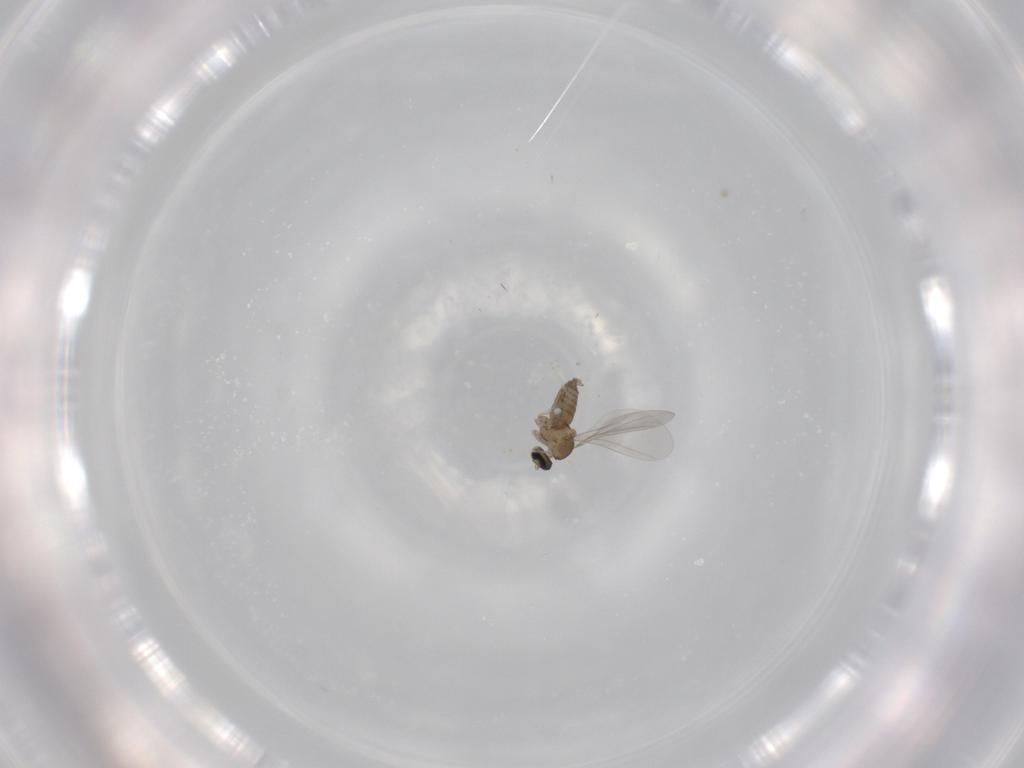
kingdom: Animalia
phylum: Arthropoda
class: Insecta
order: Diptera
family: Cecidomyiidae
